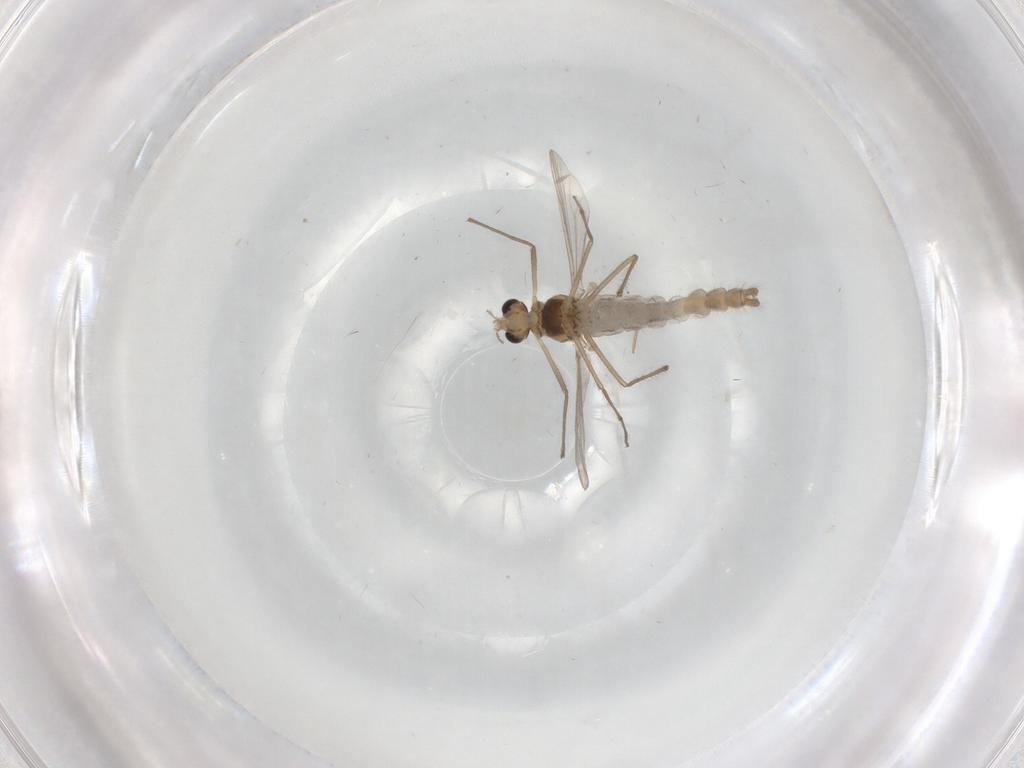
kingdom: Animalia
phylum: Arthropoda
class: Insecta
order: Diptera
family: Chironomidae
